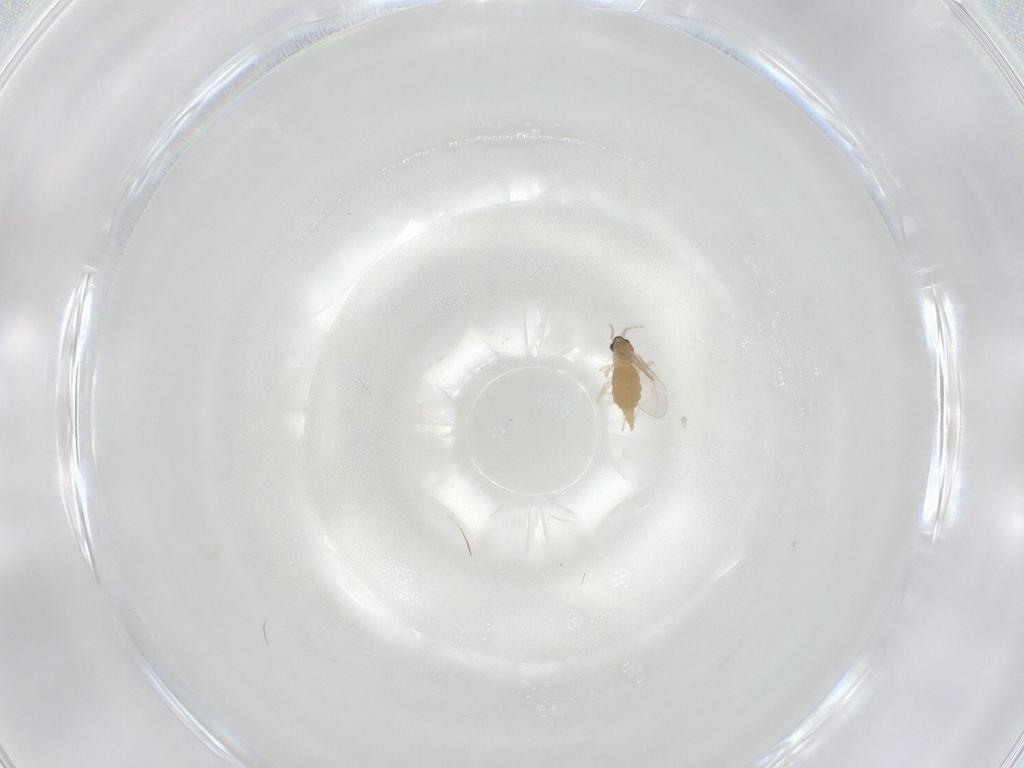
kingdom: Animalia
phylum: Arthropoda
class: Insecta
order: Diptera
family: Cecidomyiidae
